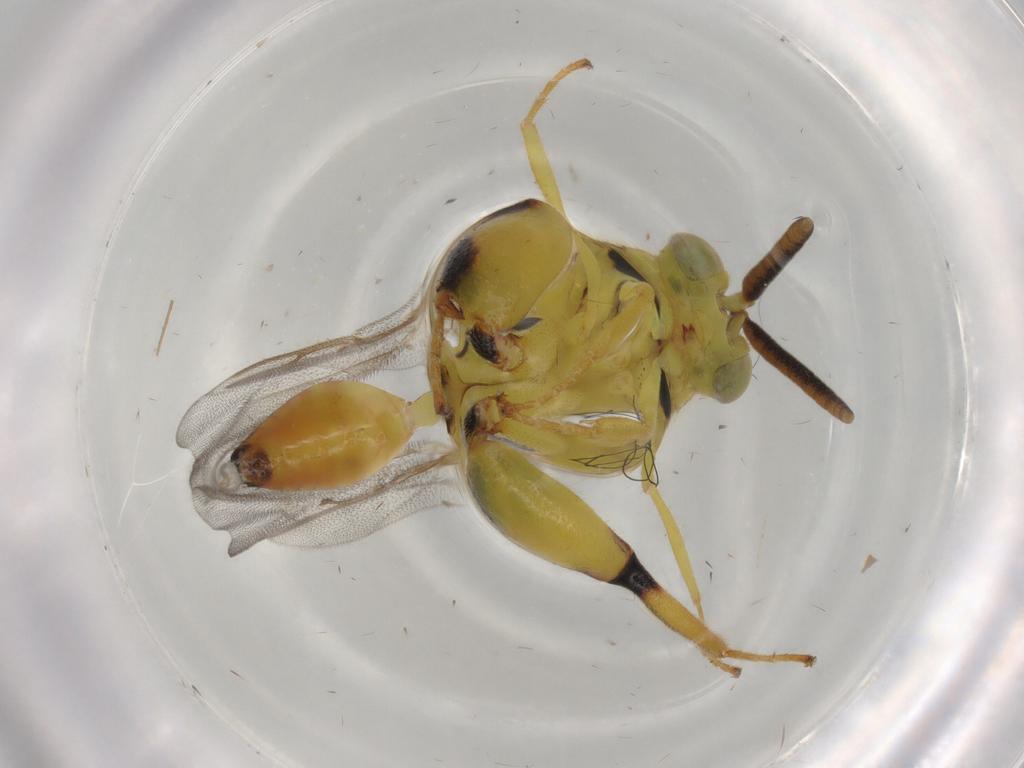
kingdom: Animalia
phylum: Arthropoda
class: Insecta
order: Hymenoptera
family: Chalcididae
